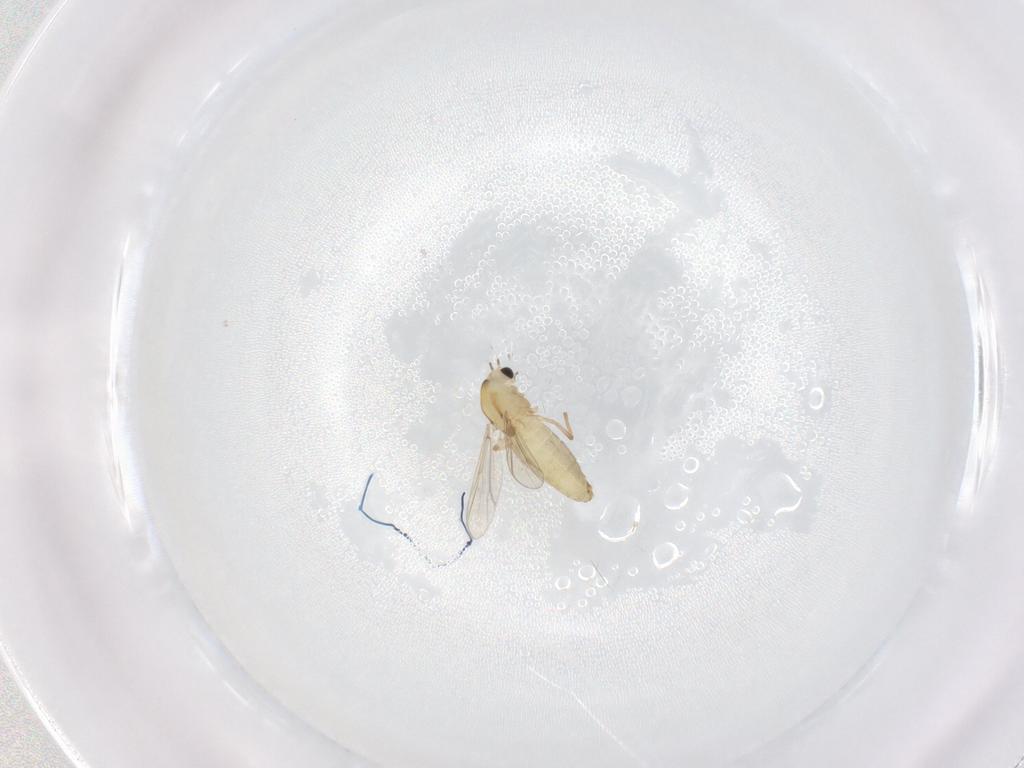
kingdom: Animalia
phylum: Arthropoda
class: Insecta
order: Diptera
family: Chironomidae
